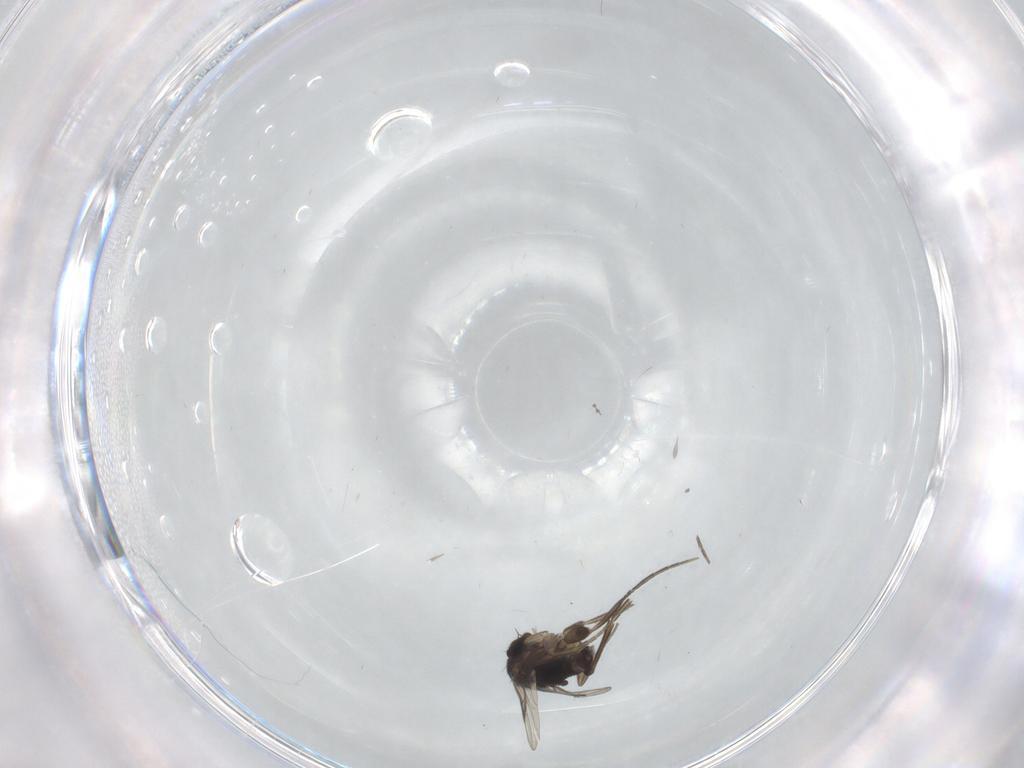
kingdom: Animalia
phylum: Arthropoda
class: Insecta
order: Diptera
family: Phoridae
